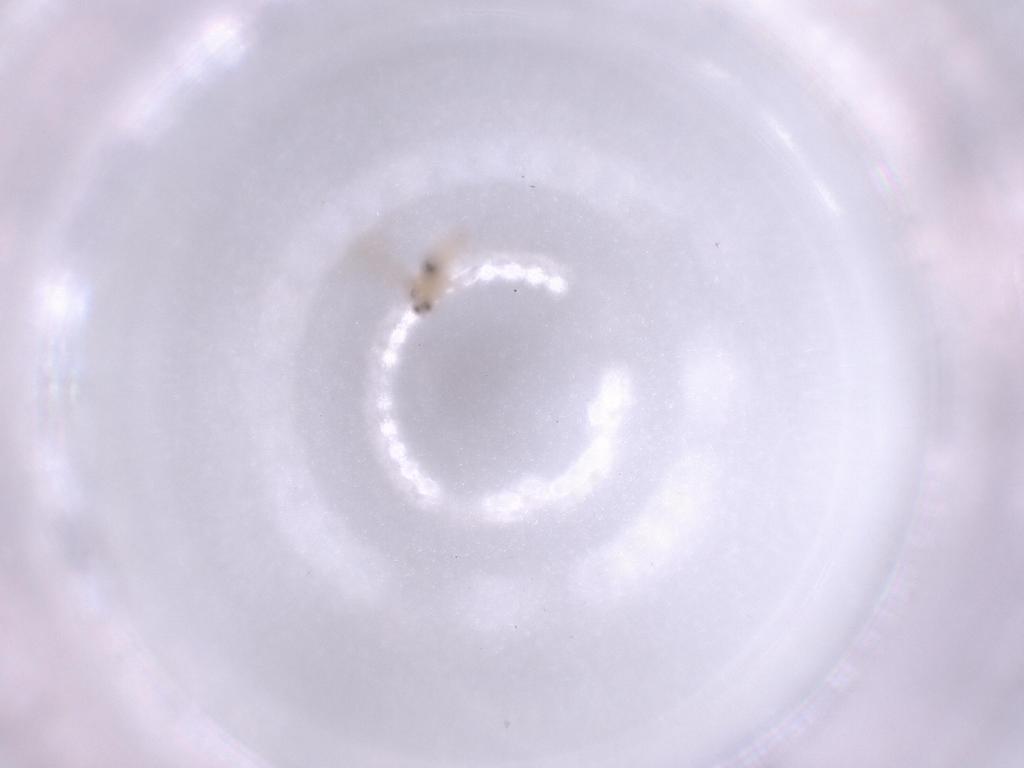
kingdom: Animalia
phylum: Arthropoda
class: Insecta
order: Diptera
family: Cecidomyiidae
